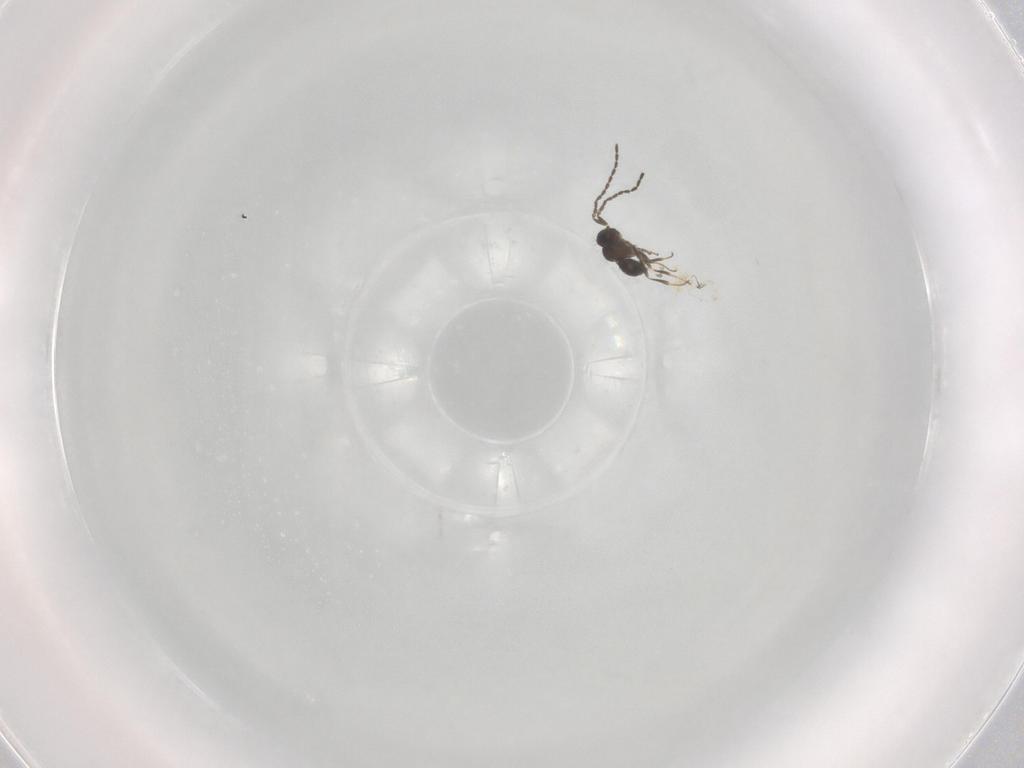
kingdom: Animalia
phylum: Arthropoda
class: Insecta
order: Hymenoptera
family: Scelionidae
